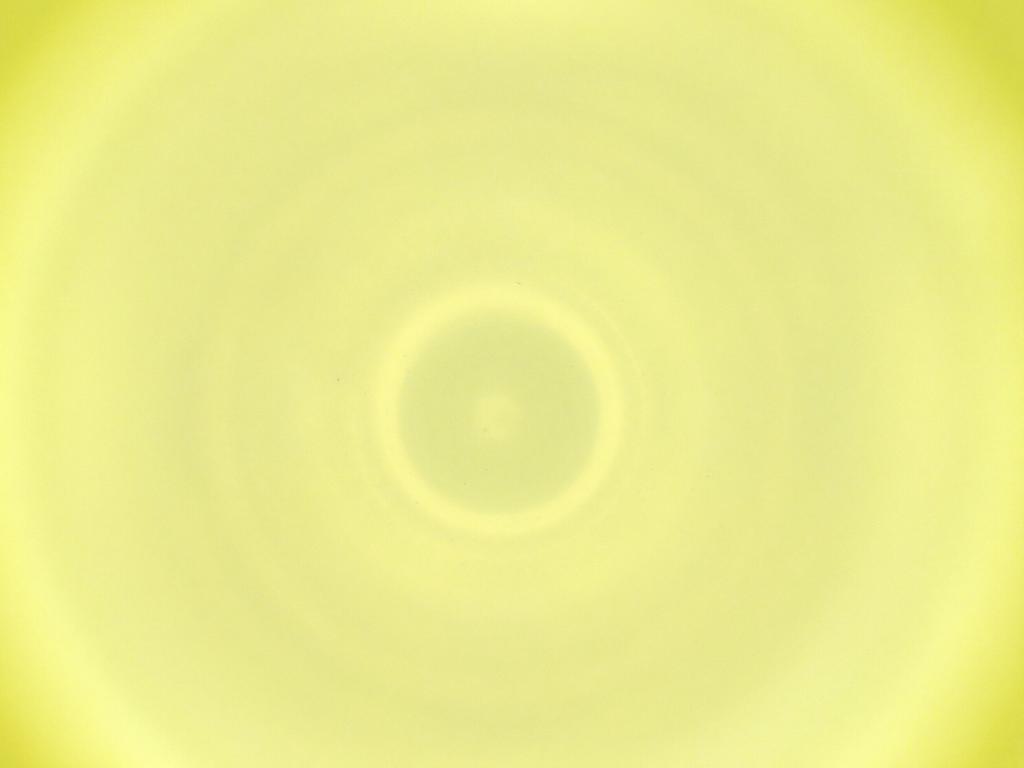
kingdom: Animalia
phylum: Arthropoda
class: Insecta
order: Diptera
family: Cecidomyiidae
